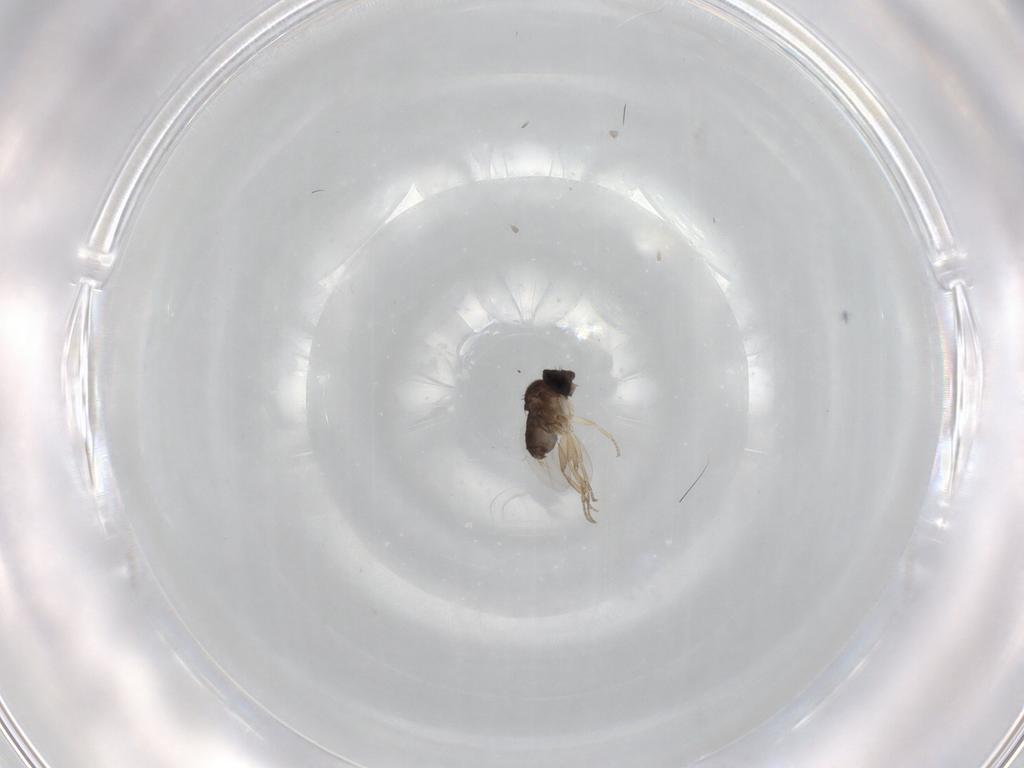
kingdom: Animalia
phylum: Arthropoda
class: Insecta
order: Diptera
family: Phoridae
